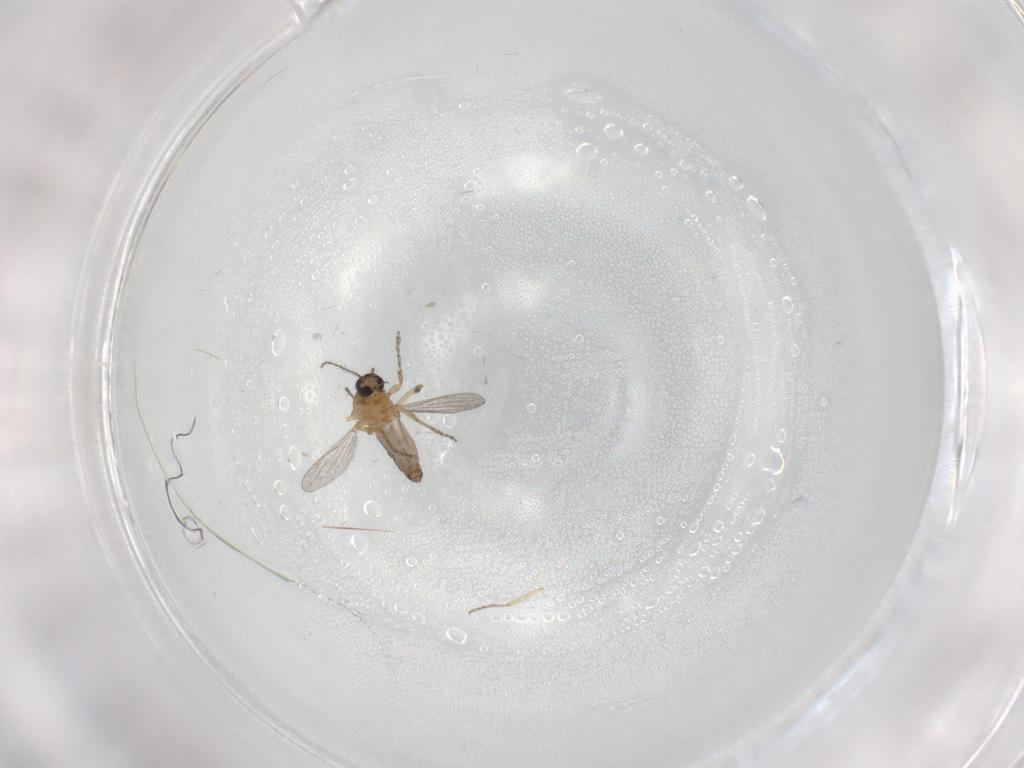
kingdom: Animalia
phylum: Arthropoda
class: Insecta
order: Diptera
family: Sciaridae
